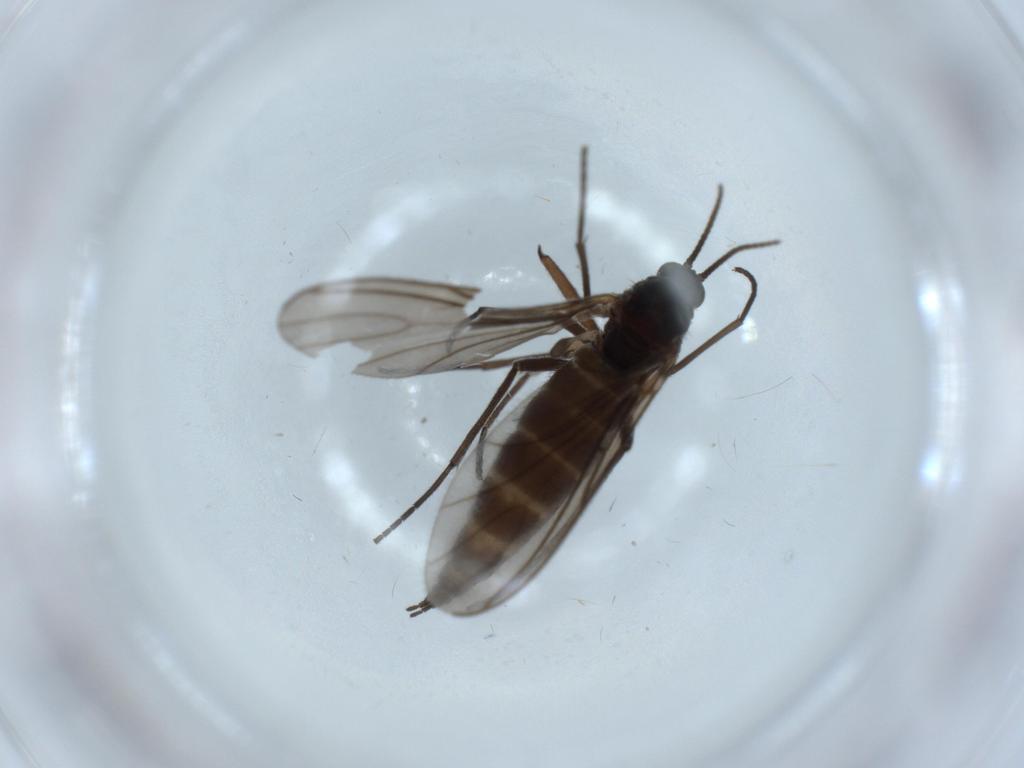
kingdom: Animalia
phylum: Arthropoda
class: Insecta
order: Diptera
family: Sciaridae
